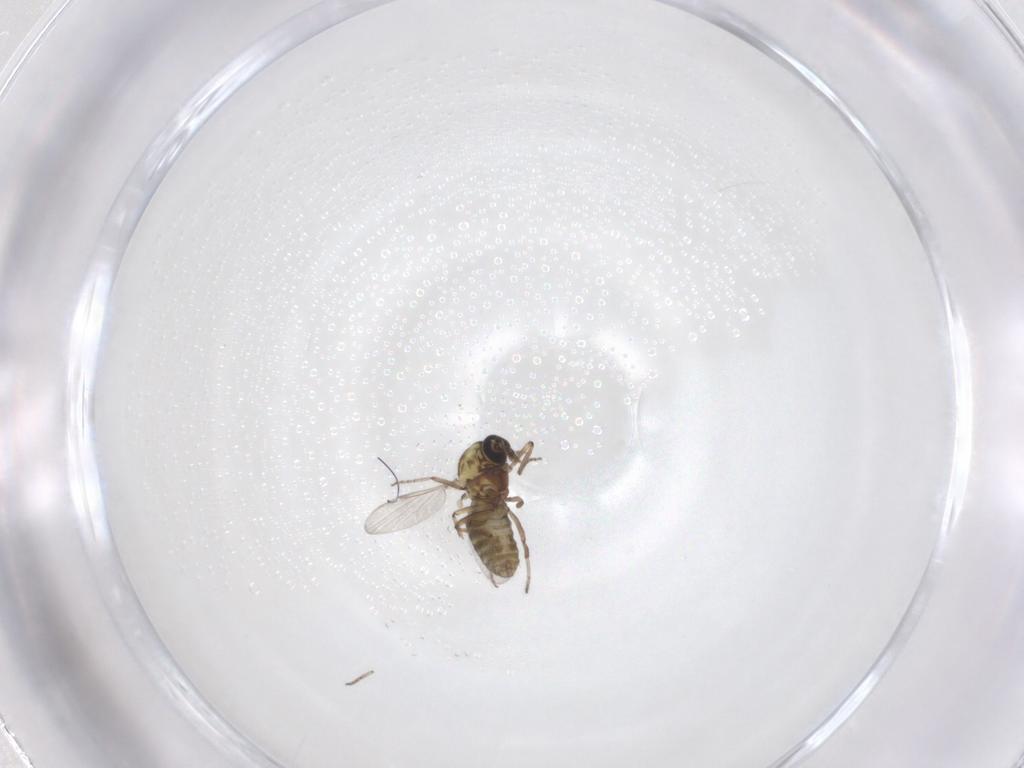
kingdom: Animalia
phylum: Arthropoda
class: Insecta
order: Diptera
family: Ceratopogonidae
